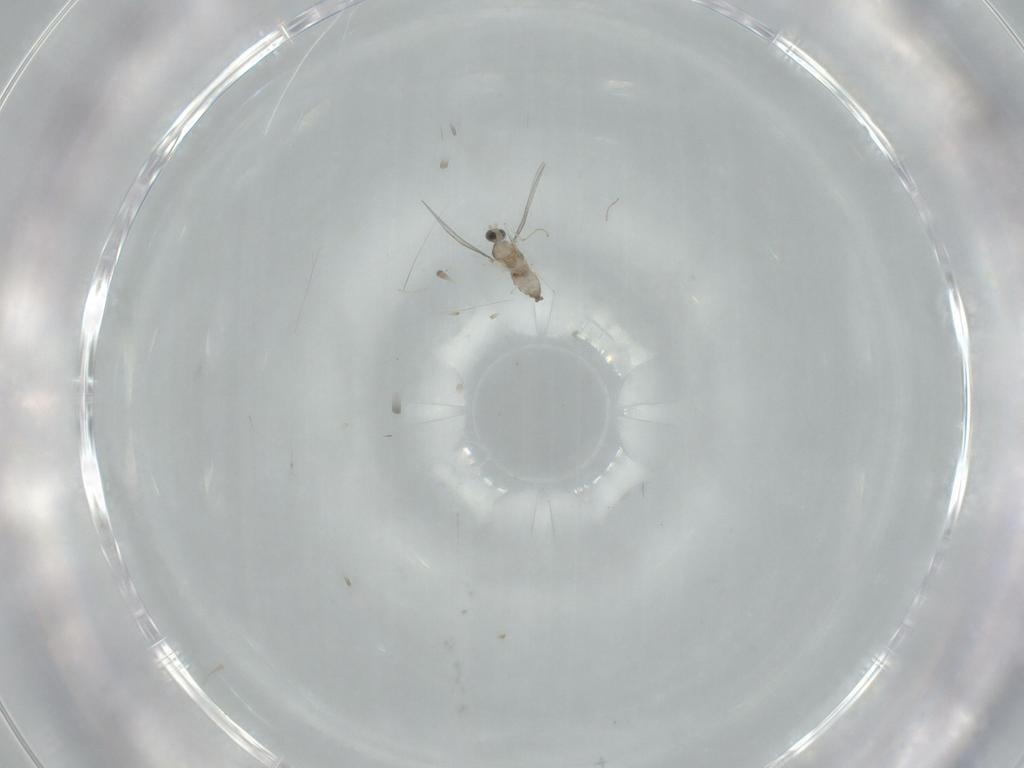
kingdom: Animalia
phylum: Arthropoda
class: Insecta
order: Diptera
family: Cecidomyiidae
